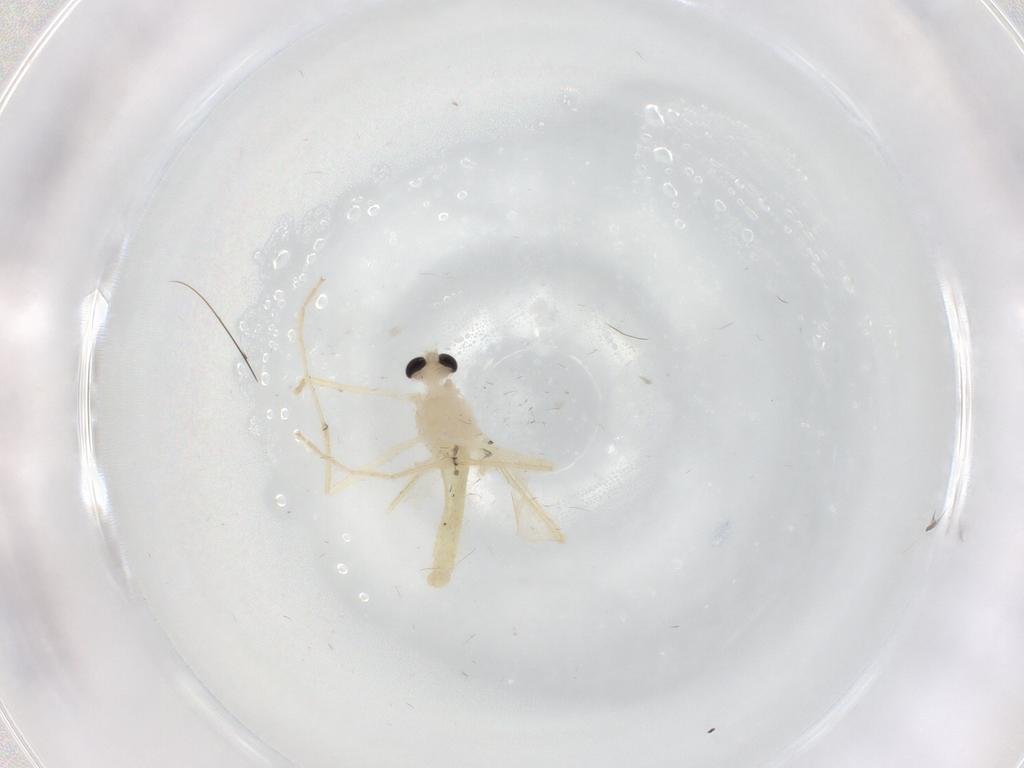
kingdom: Animalia
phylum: Arthropoda
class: Insecta
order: Diptera
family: Chironomidae
